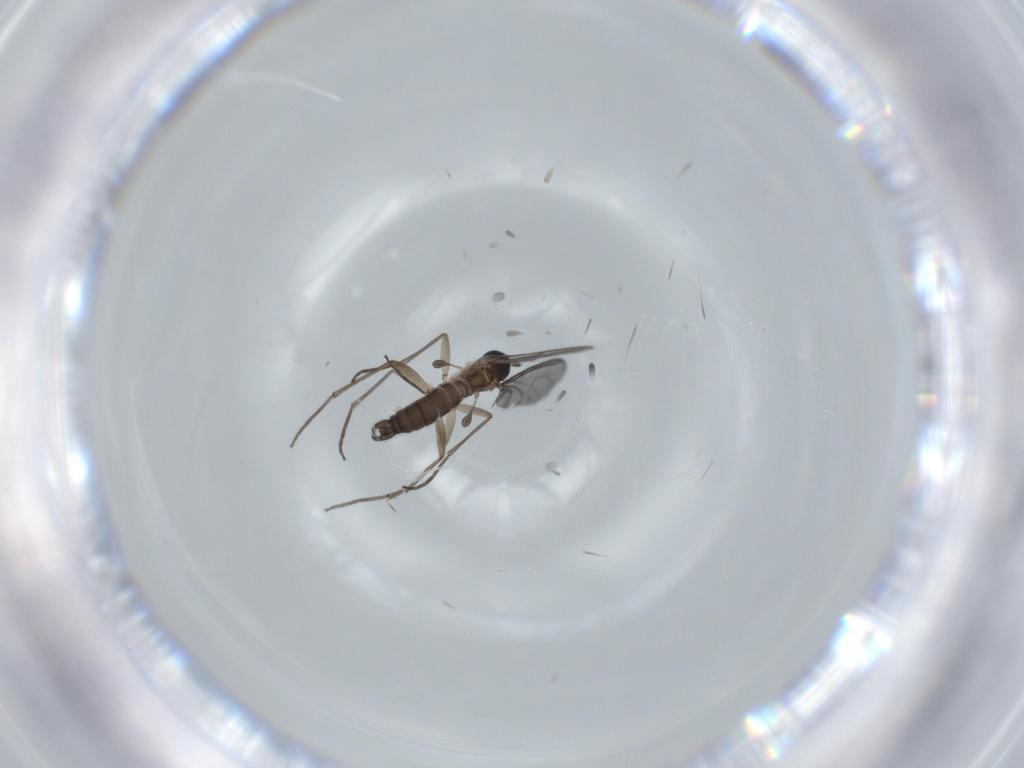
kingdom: Animalia
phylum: Arthropoda
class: Insecta
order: Diptera
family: Sciaridae
